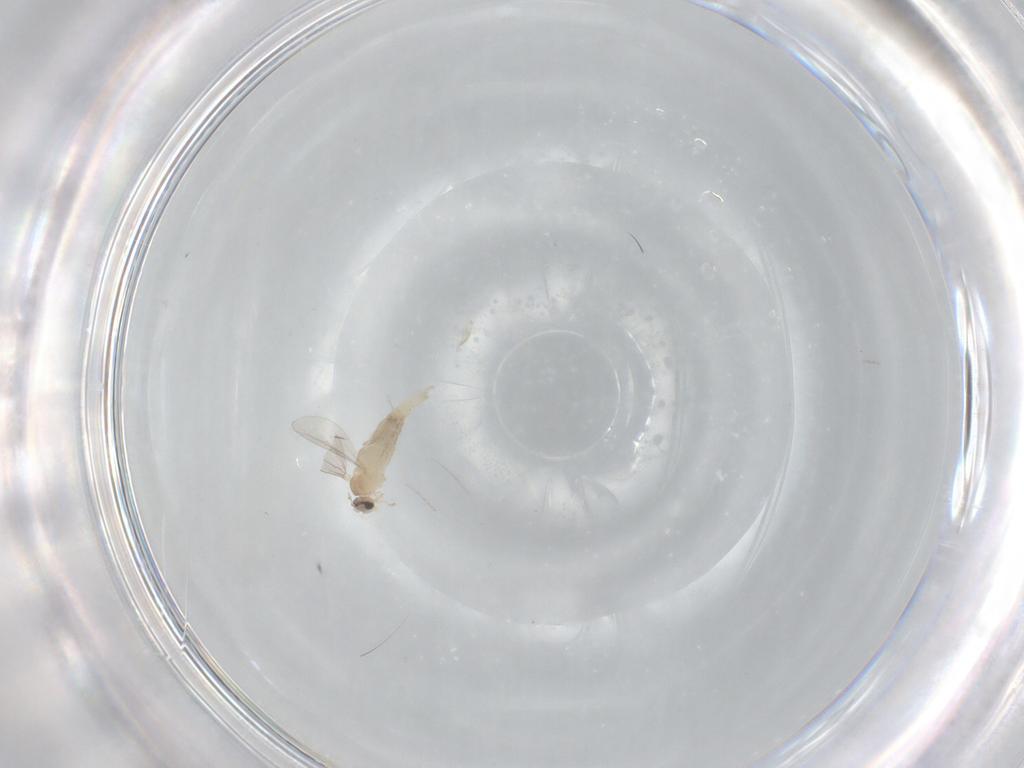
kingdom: Animalia
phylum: Arthropoda
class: Insecta
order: Diptera
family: Cecidomyiidae
